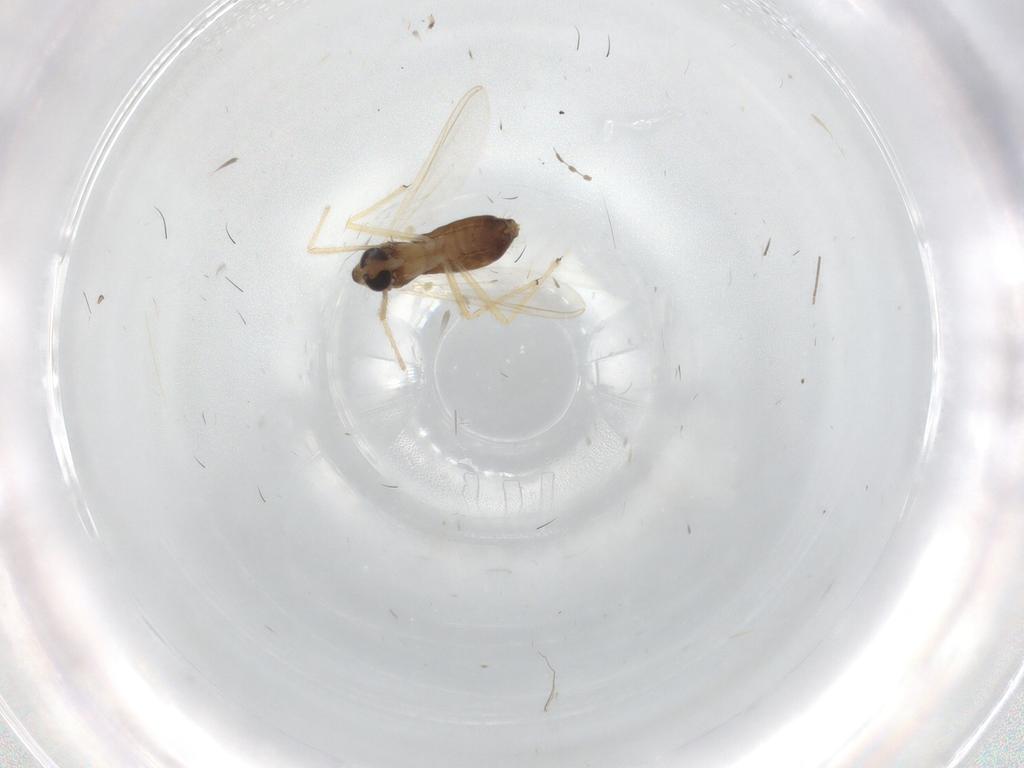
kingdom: Animalia
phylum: Arthropoda
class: Insecta
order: Diptera
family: Chironomidae
